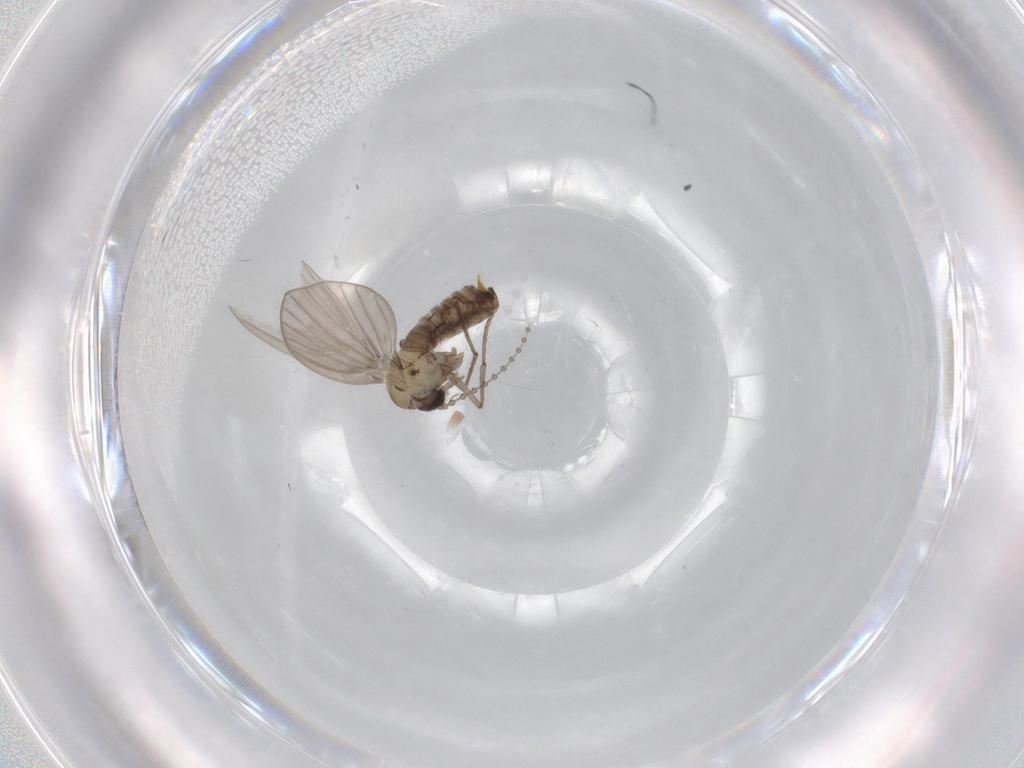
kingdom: Animalia
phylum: Arthropoda
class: Insecta
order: Diptera
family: Psychodidae
